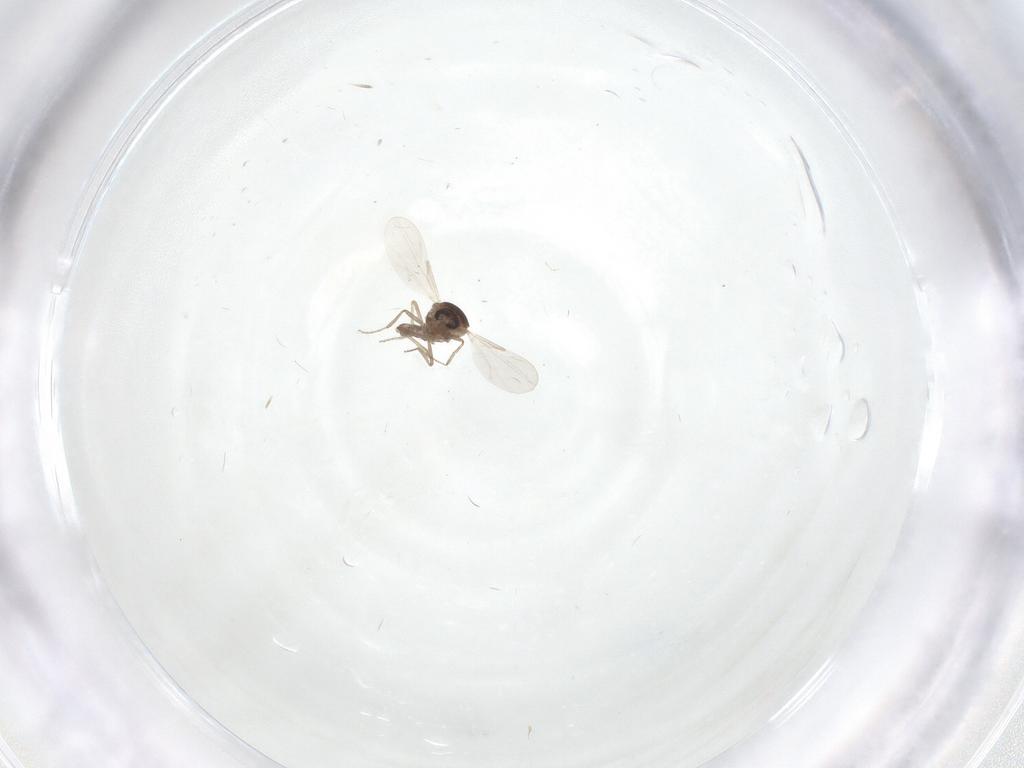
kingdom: Animalia
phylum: Arthropoda
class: Insecta
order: Diptera
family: Ceratopogonidae
